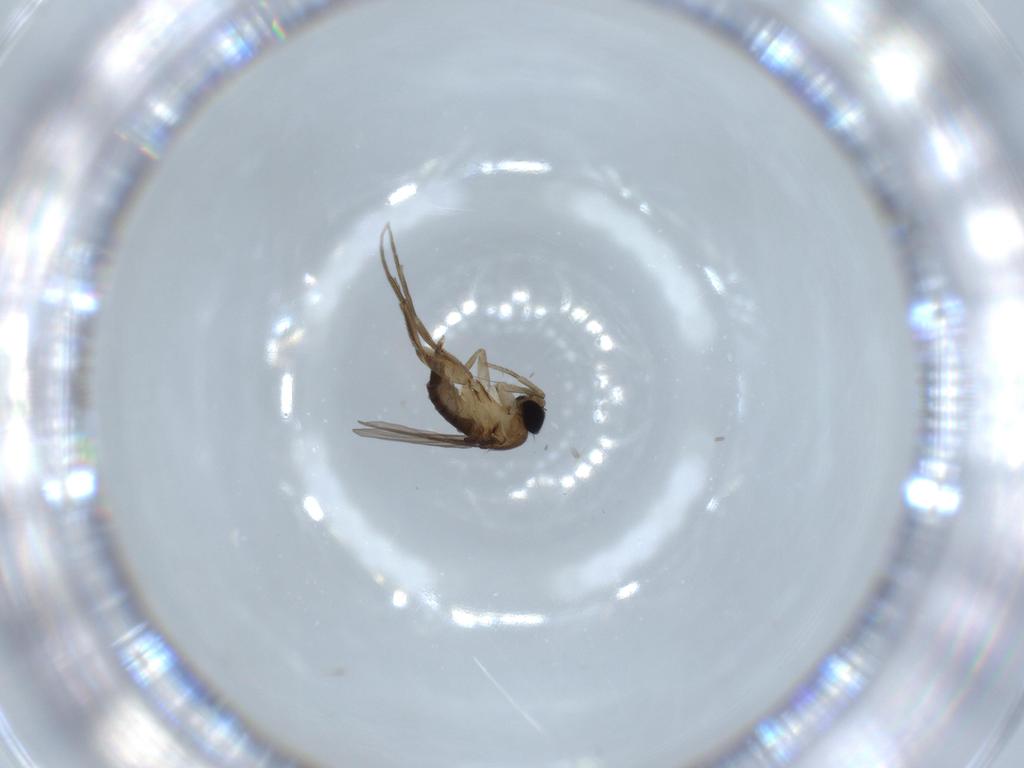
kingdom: Animalia
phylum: Arthropoda
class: Insecta
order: Diptera
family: Phoridae
